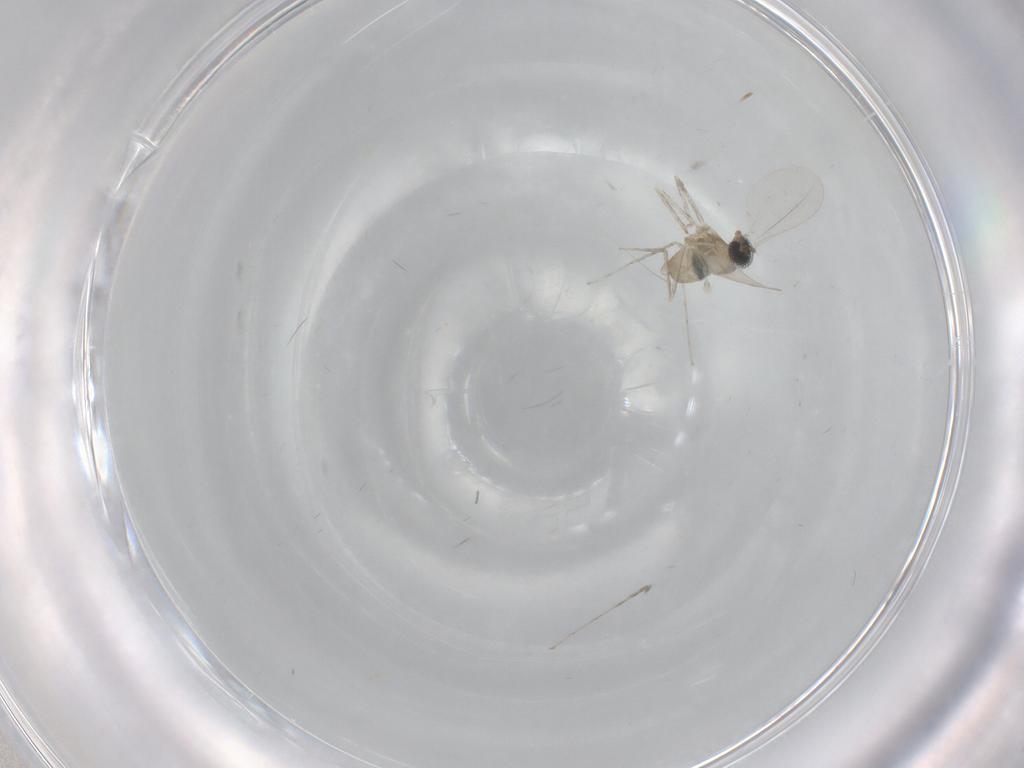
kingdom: Animalia
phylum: Arthropoda
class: Insecta
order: Diptera
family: Cecidomyiidae
